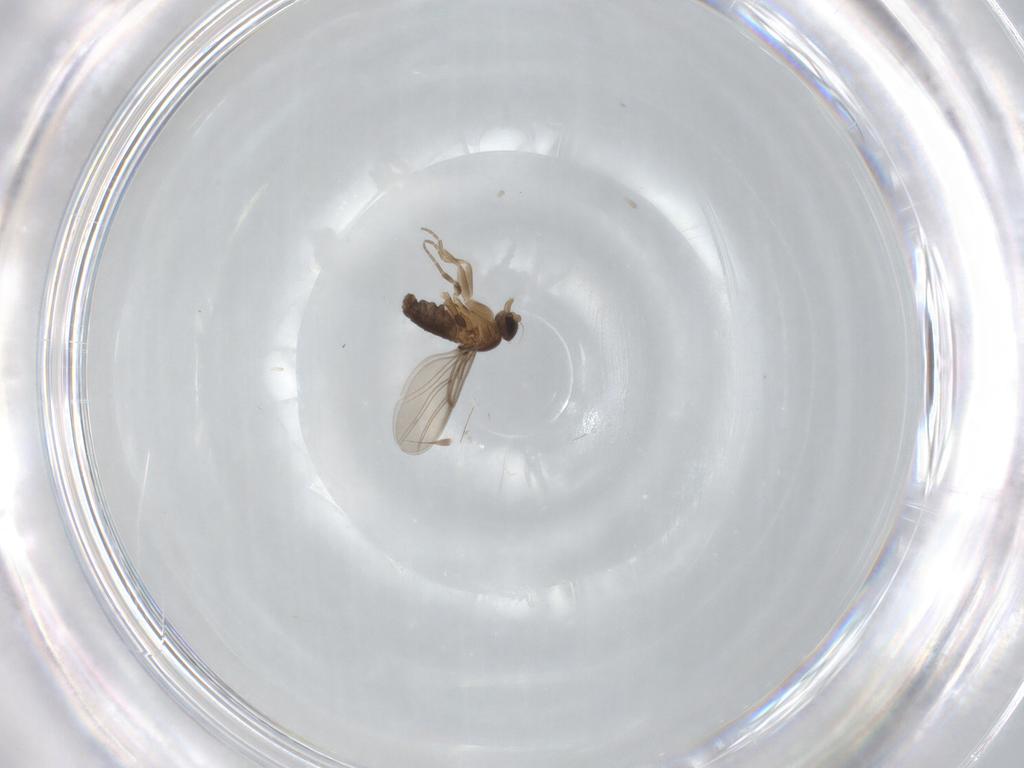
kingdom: Animalia
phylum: Arthropoda
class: Insecta
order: Diptera
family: Phoridae
